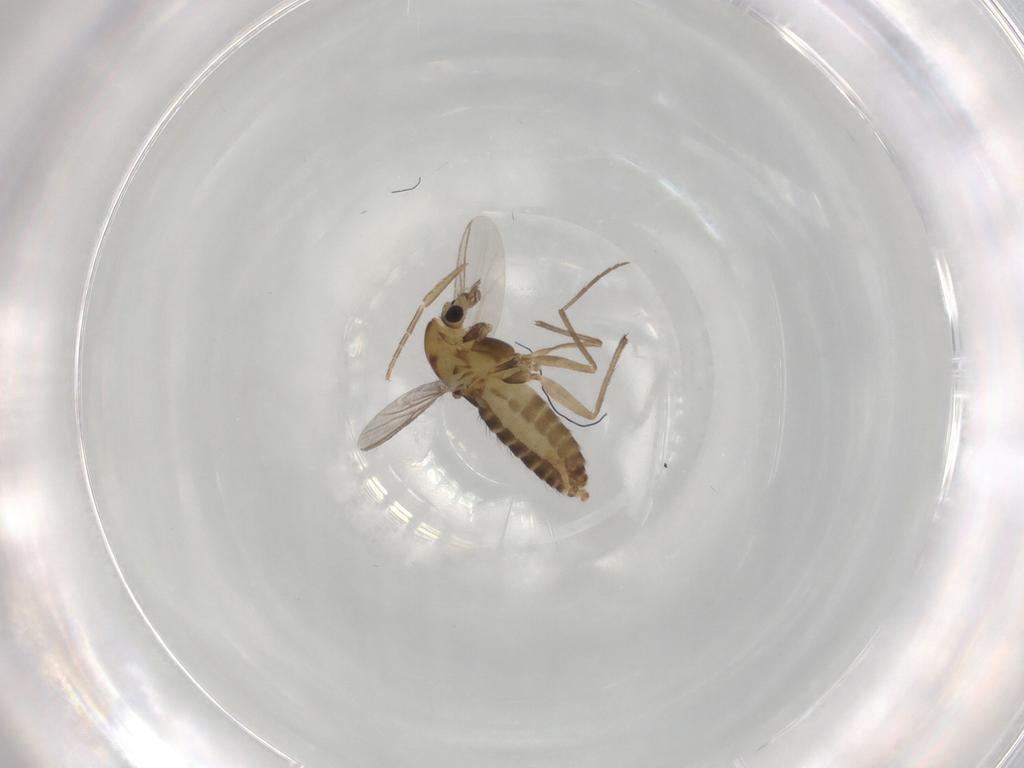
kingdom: Animalia
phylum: Arthropoda
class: Insecta
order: Diptera
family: Chironomidae
